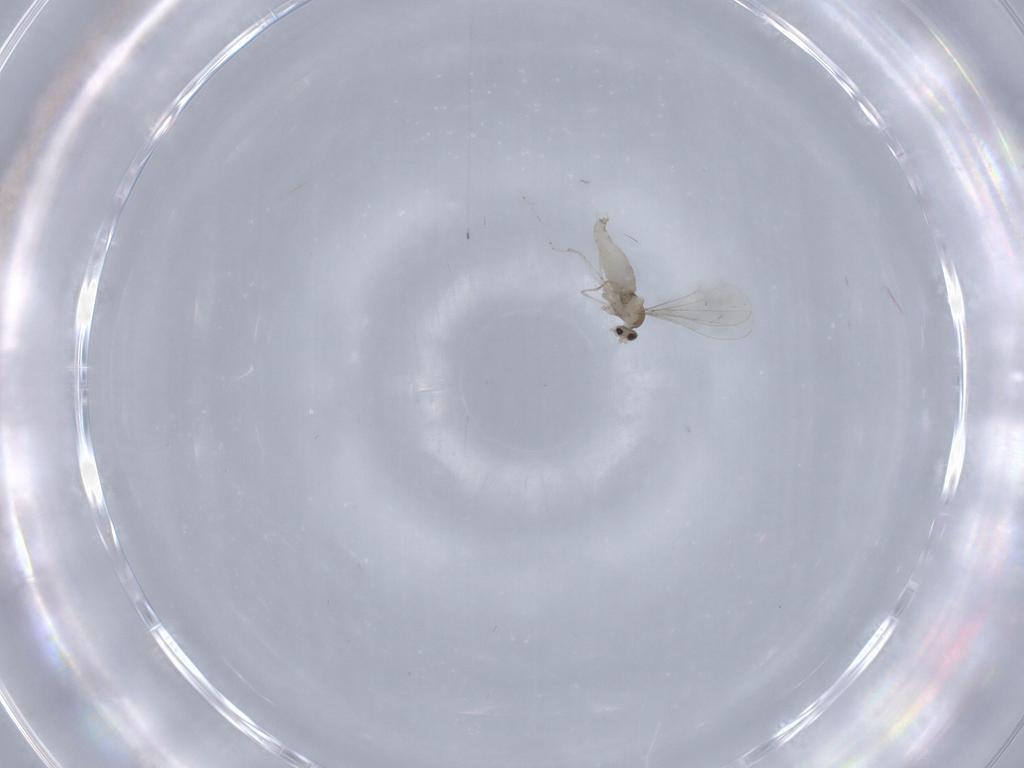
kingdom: Animalia
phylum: Arthropoda
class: Insecta
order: Diptera
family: Cecidomyiidae
